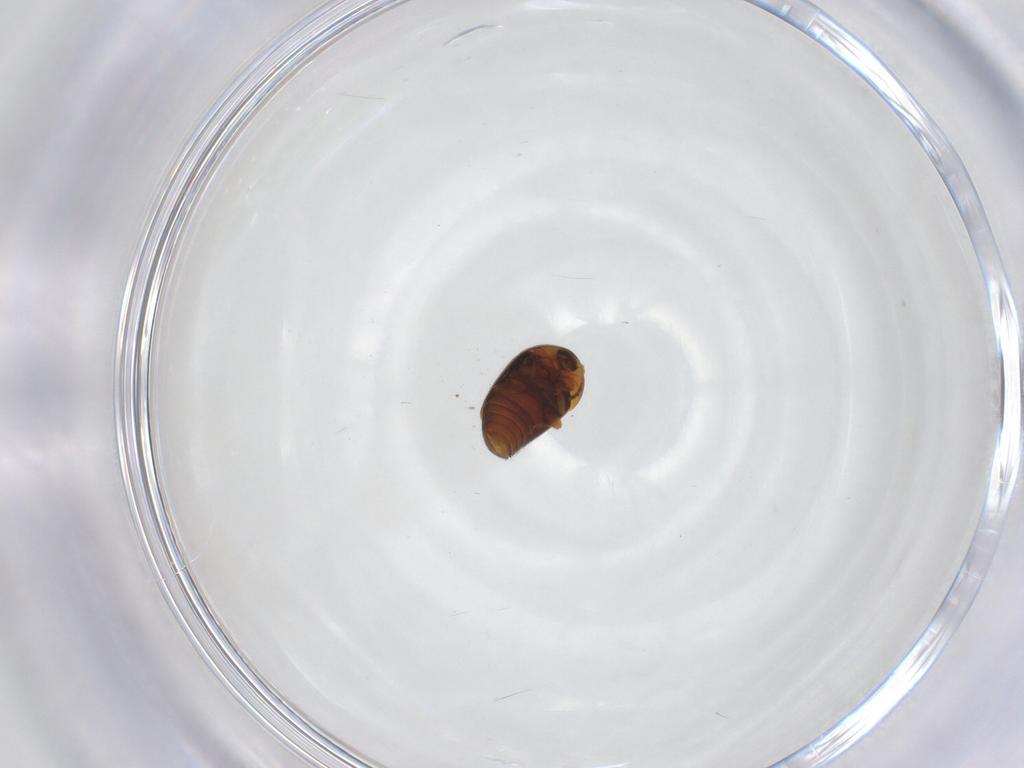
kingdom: Animalia
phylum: Arthropoda
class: Insecta
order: Coleoptera
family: Corylophidae
